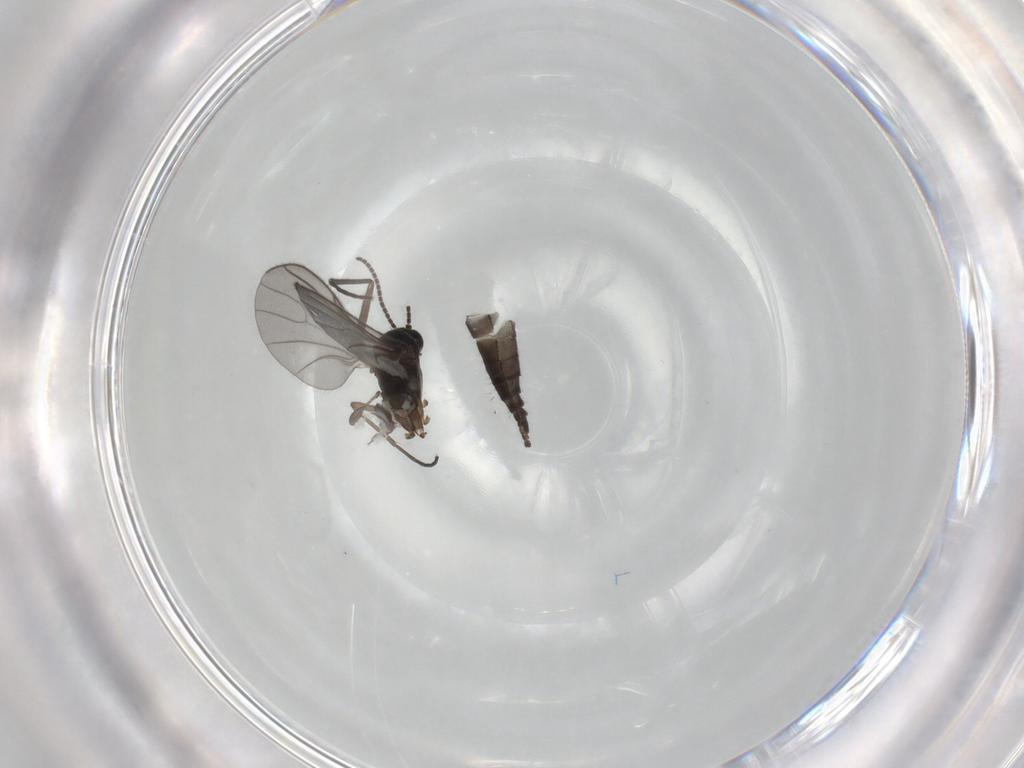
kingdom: Animalia
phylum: Arthropoda
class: Insecta
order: Diptera
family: Sciaridae
